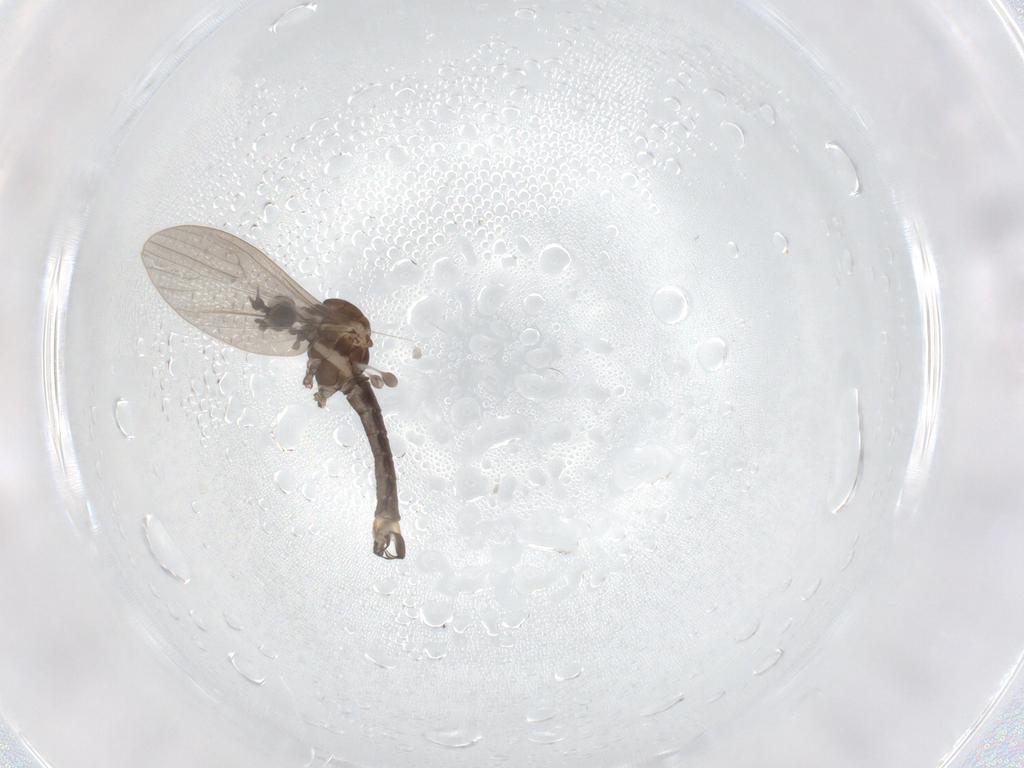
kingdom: Animalia
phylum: Arthropoda
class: Insecta
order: Diptera
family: Limoniidae
